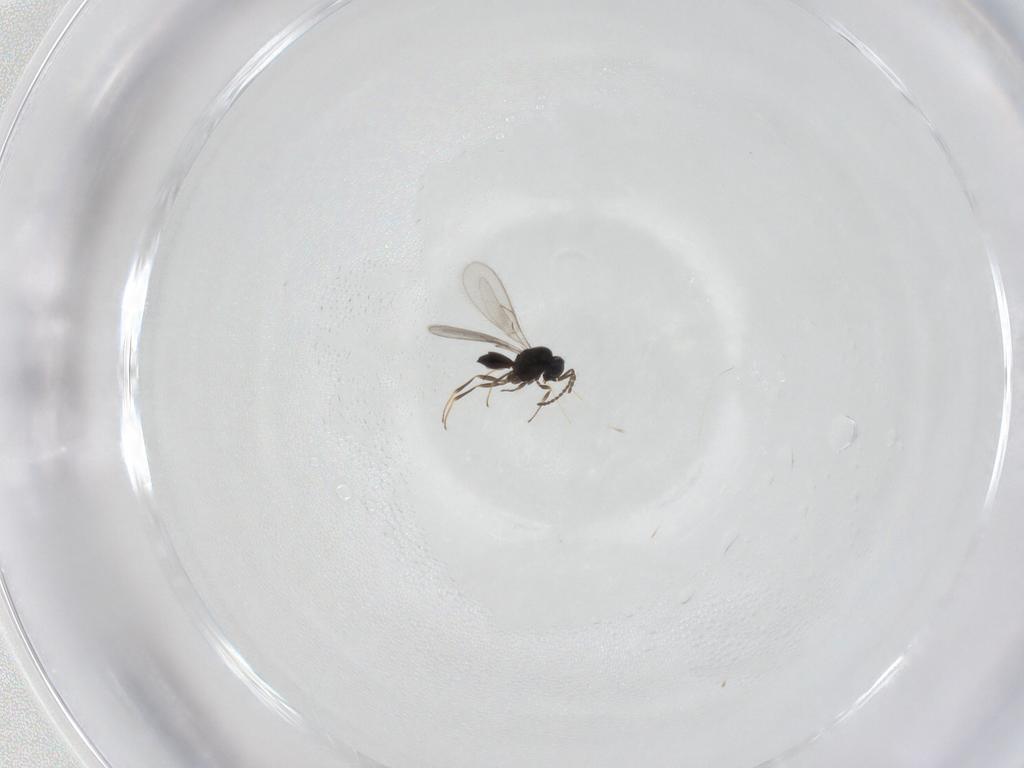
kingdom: Animalia
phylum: Arthropoda
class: Insecta
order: Hymenoptera
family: Scelionidae
